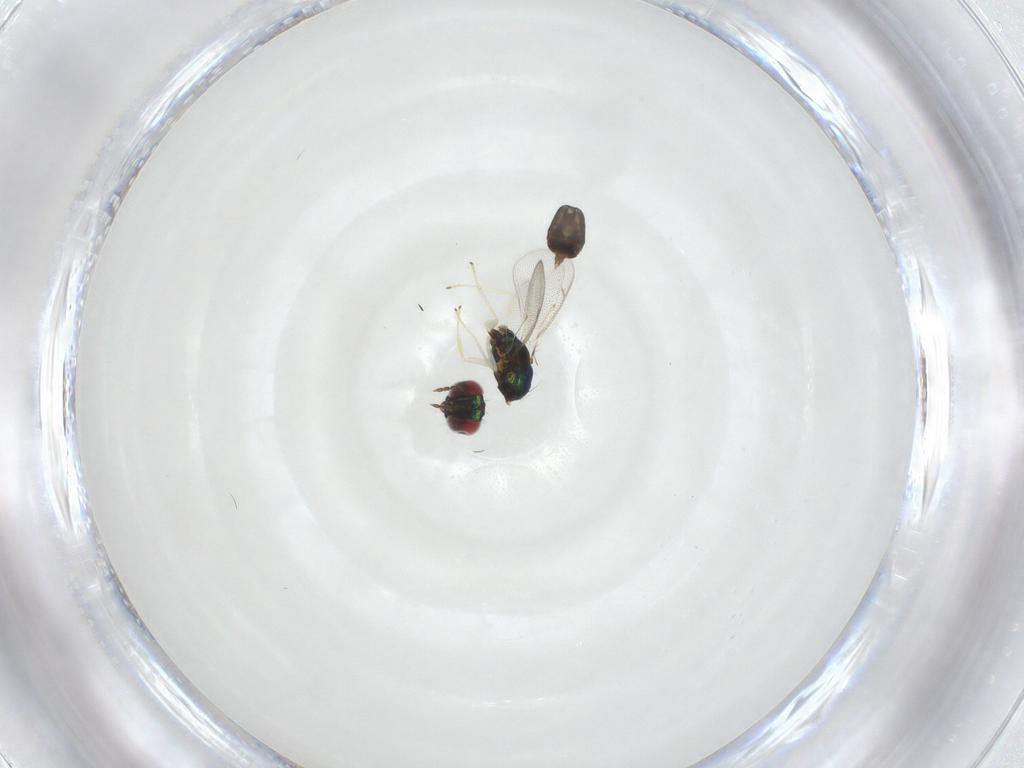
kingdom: Animalia
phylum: Arthropoda
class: Insecta
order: Hymenoptera
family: Eulophidae
